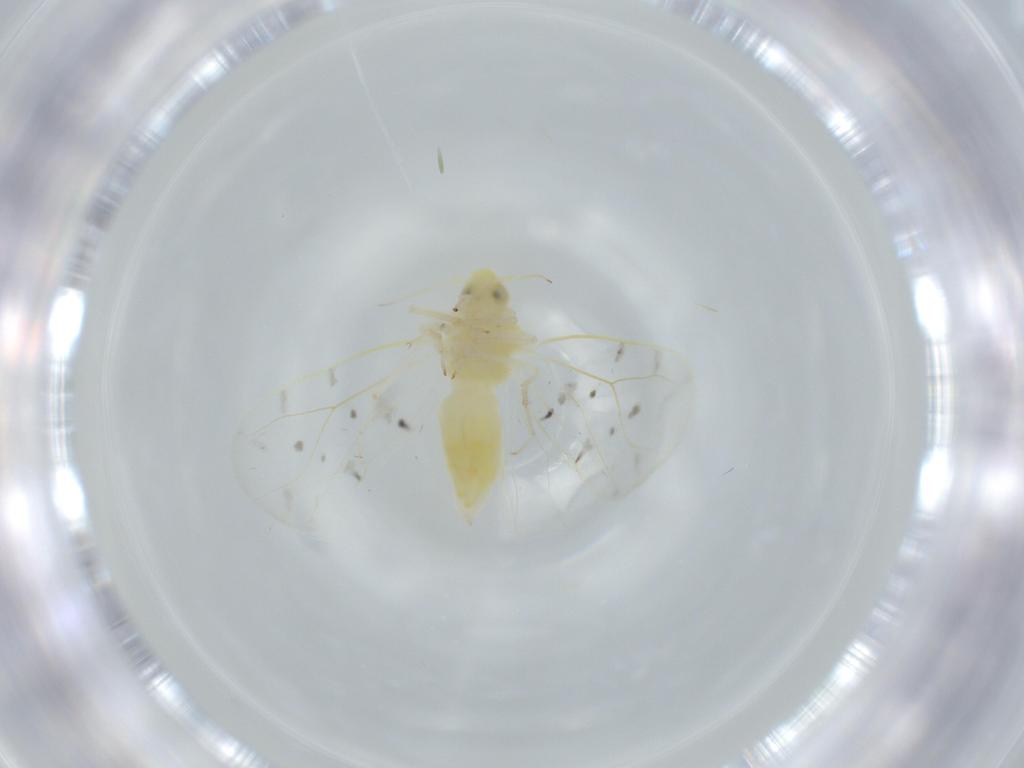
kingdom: Animalia
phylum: Arthropoda
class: Insecta
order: Hemiptera
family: Aleyrodidae
